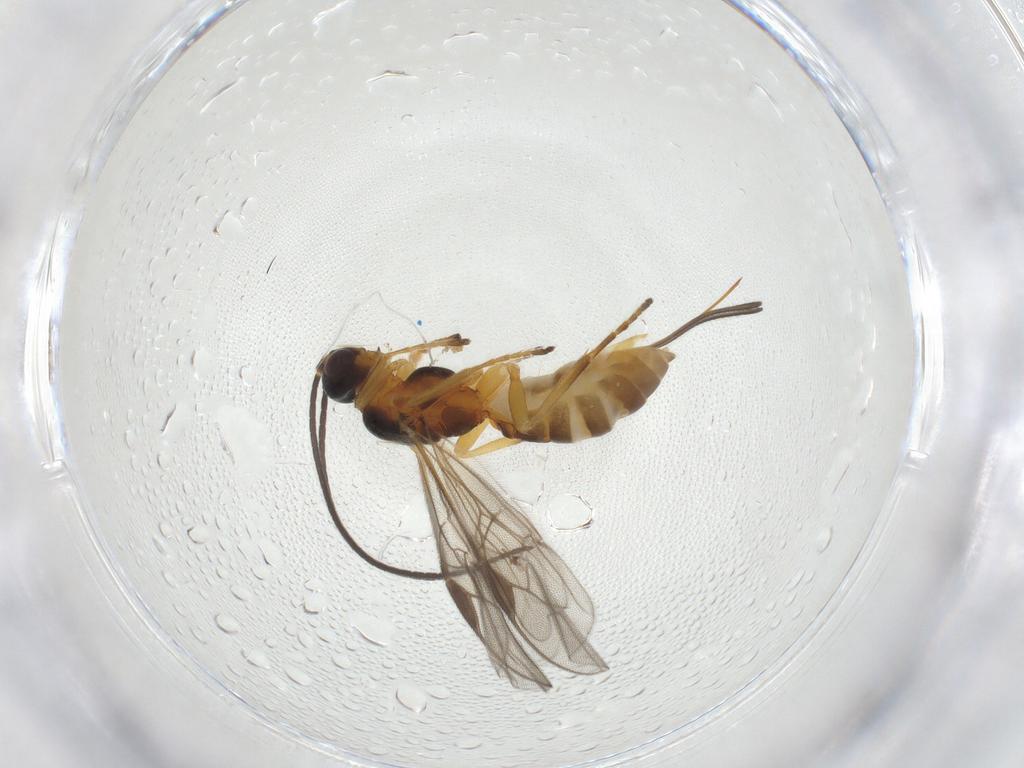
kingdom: Animalia
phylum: Arthropoda
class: Insecta
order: Hymenoptera
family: Braconidae
